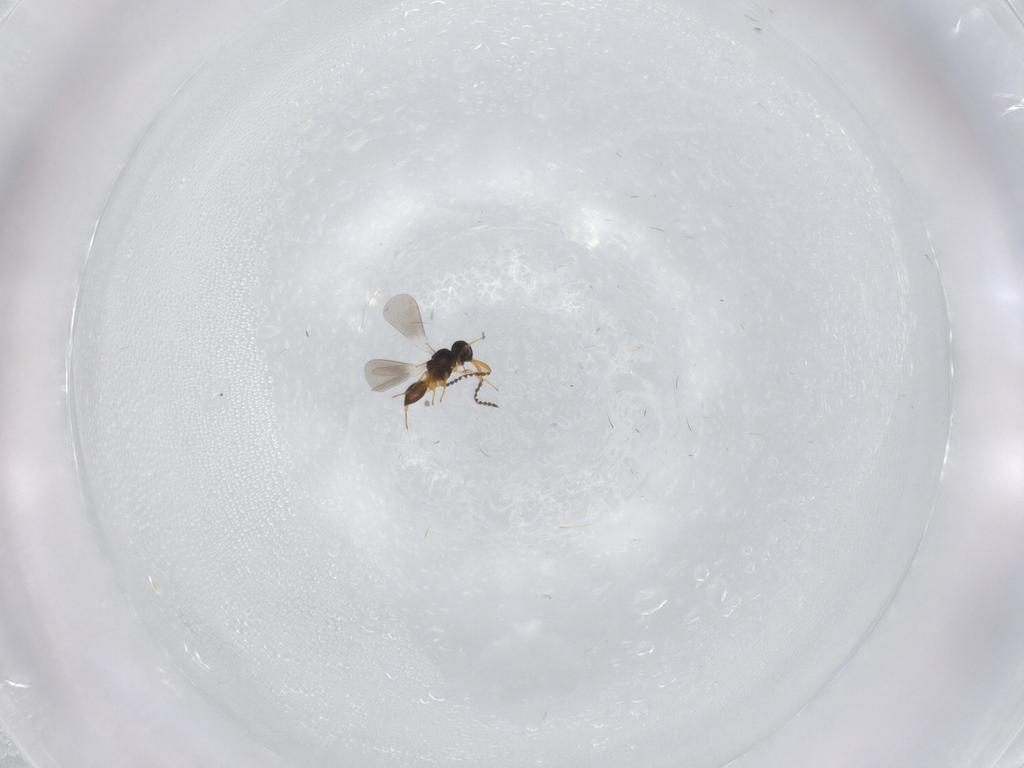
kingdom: Animalia
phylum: Arthropoda
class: Insecta
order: Hymenoptera
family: Platygastridae
